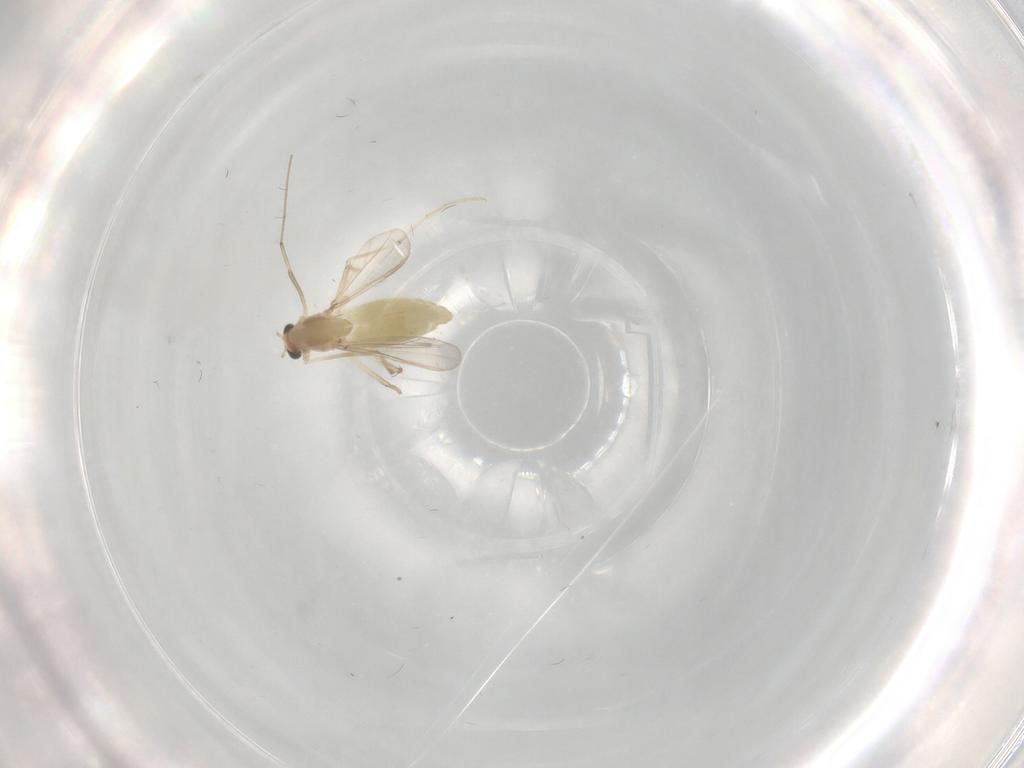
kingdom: Animalia
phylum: Arthropoda
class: Insecta
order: Diptera
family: Chironomidae
